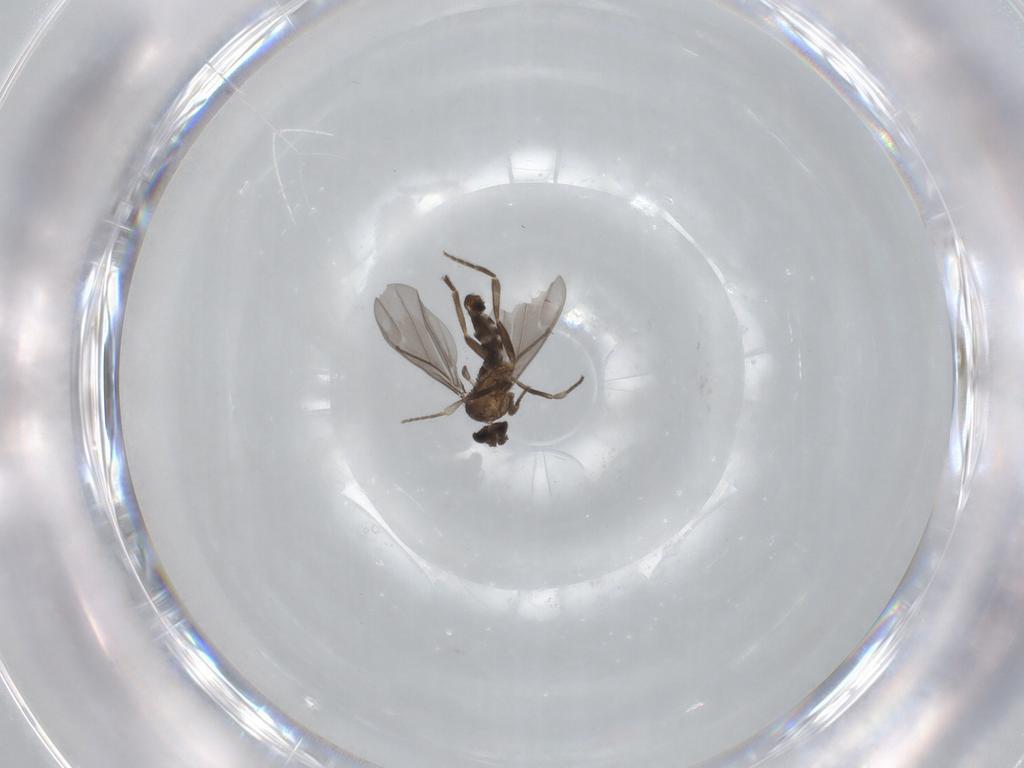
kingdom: Animalia
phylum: Arthropoda
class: Insecta
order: Diptera
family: Phoridae
